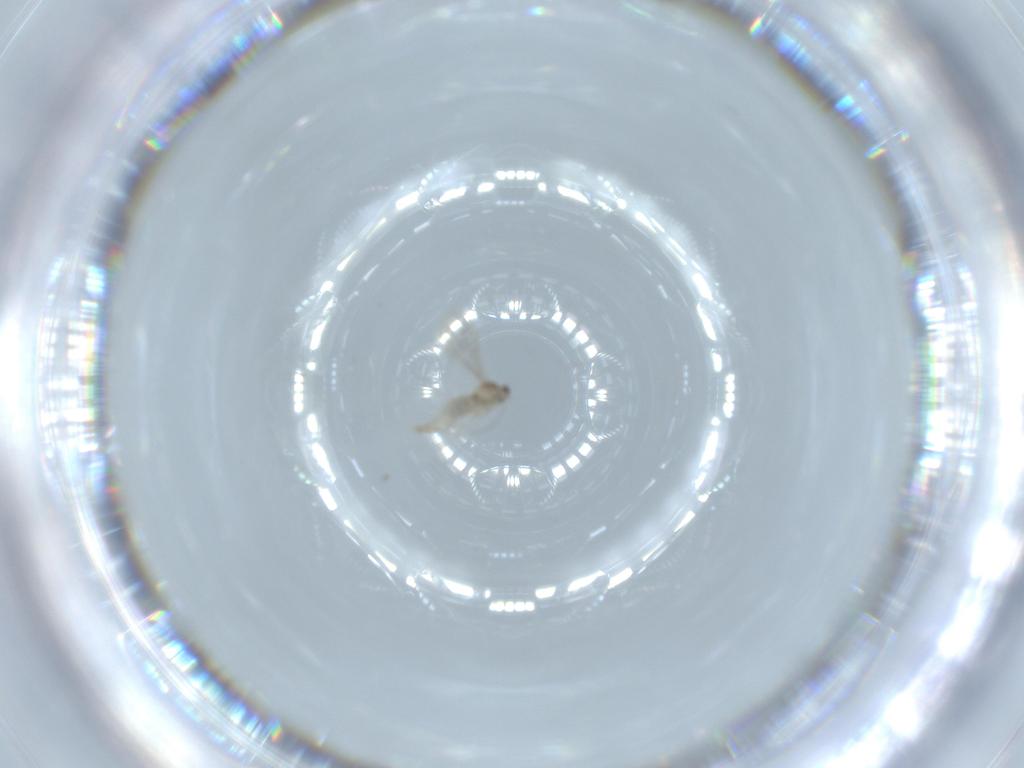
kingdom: Animalia
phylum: Arthropoda
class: Insecta
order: Diptera
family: Cecidomyiidae
